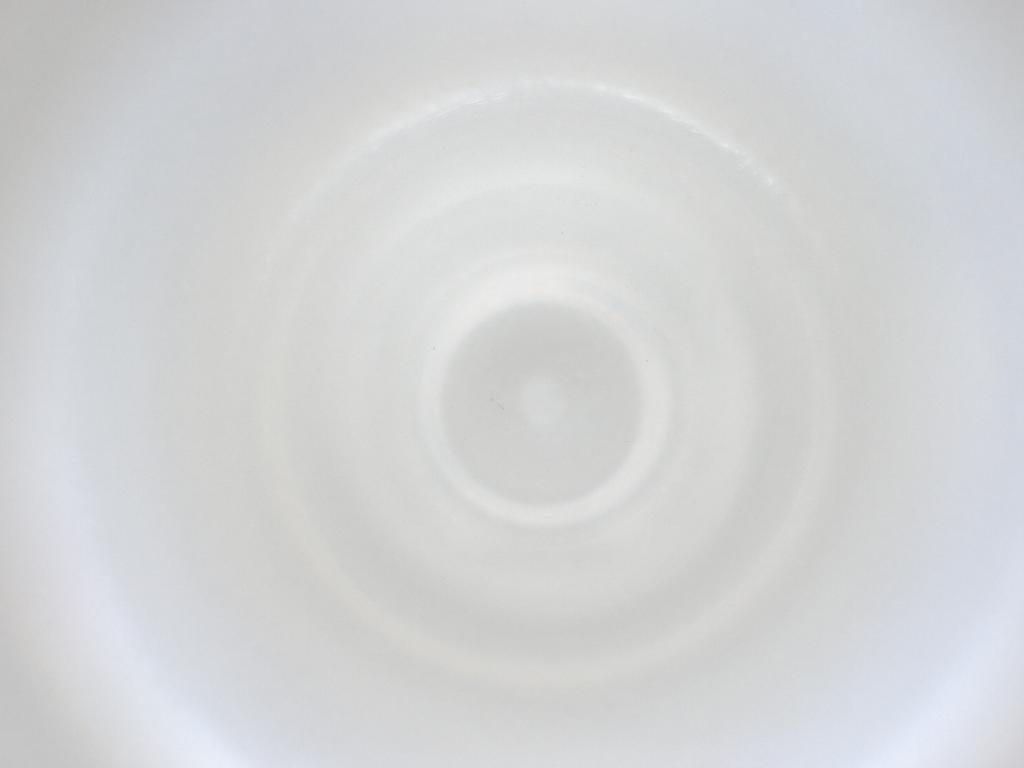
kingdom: Animalia
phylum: Arthropoda
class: Insecta
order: Diptera
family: Cecidomyiidae
